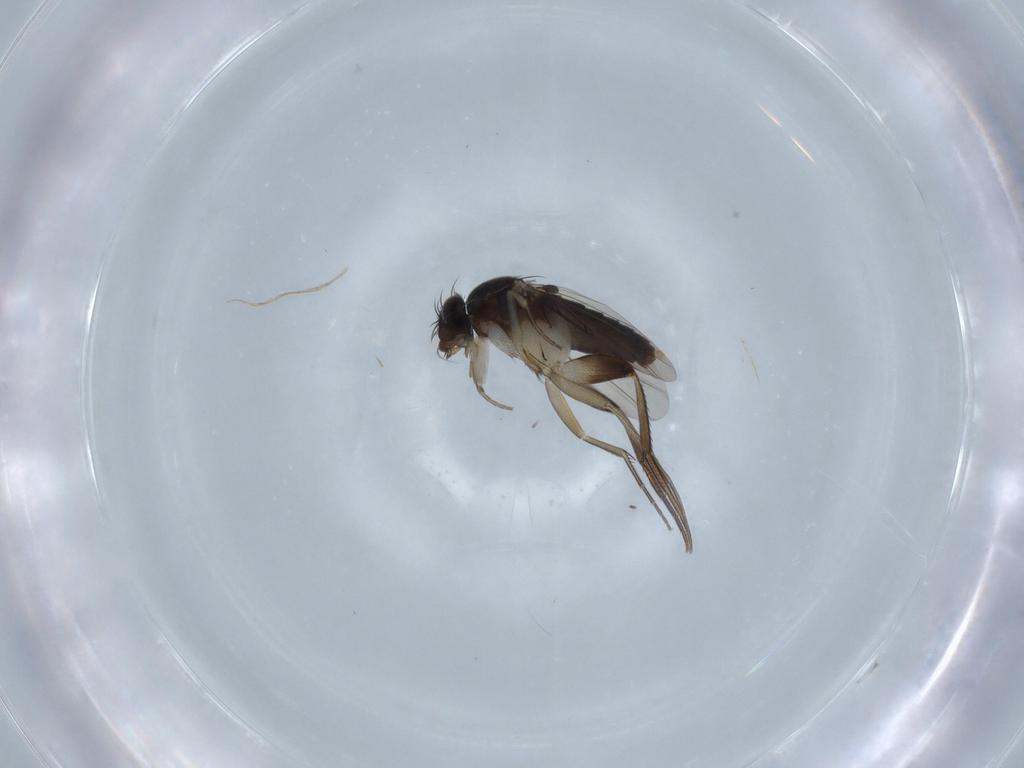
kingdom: Animalia
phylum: Arthropoda
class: Insecta
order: Diptera
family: Phoridae
